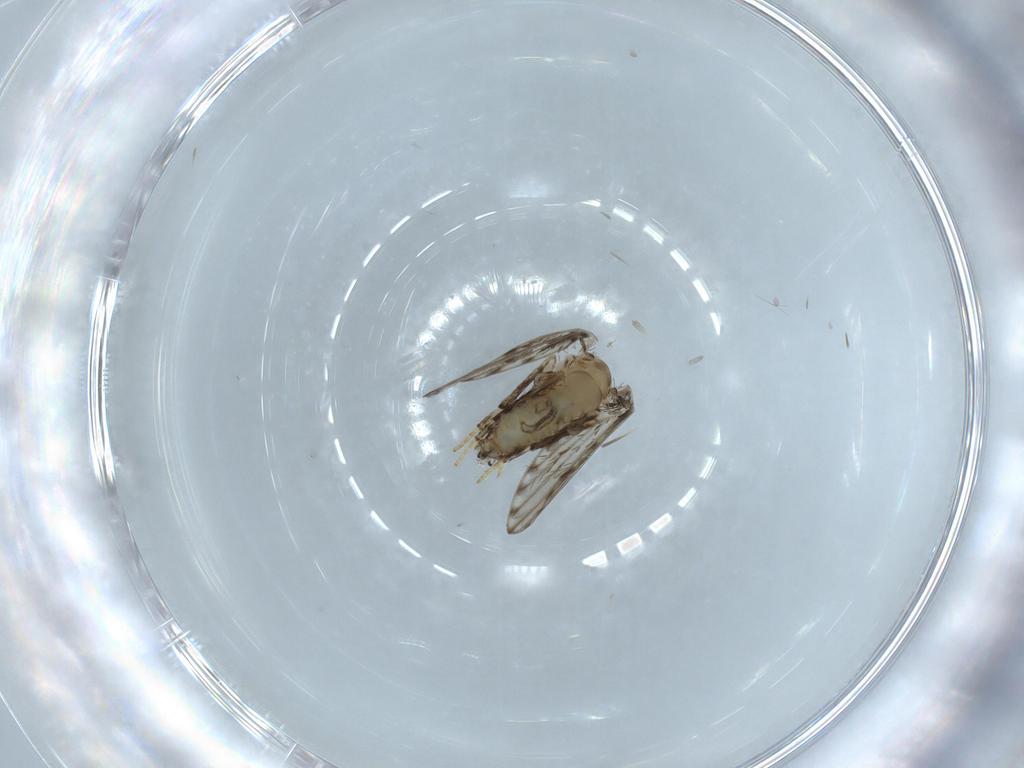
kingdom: Animalia
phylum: Arthropoda
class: Insecta
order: Diptera
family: Psychodidae
